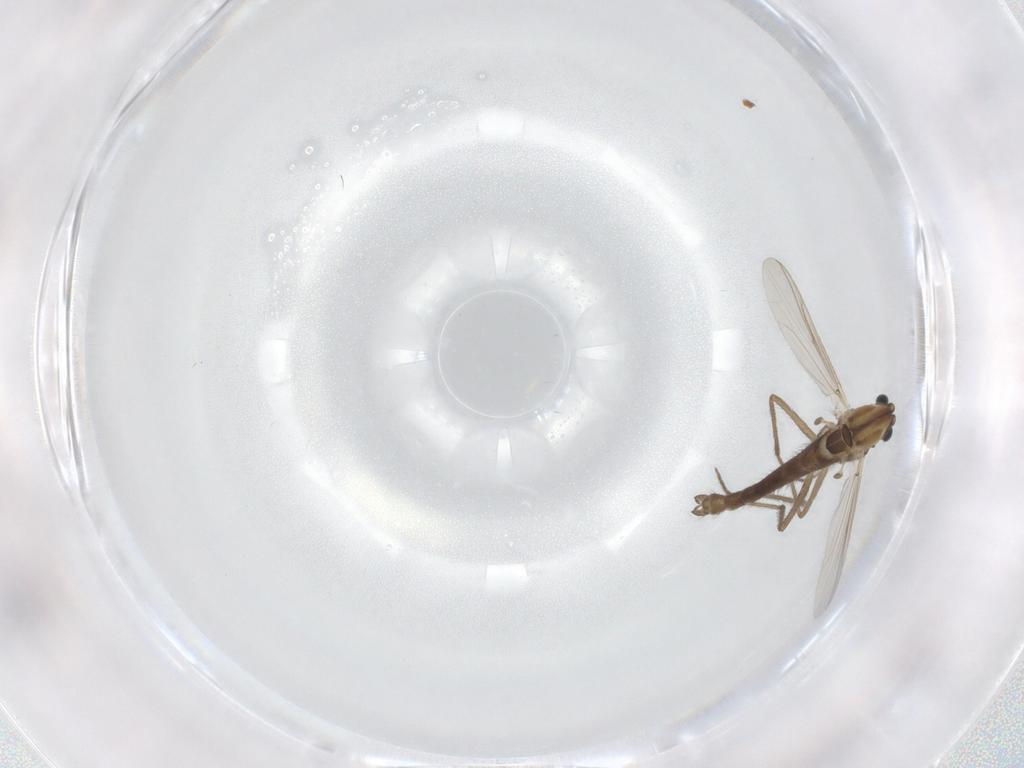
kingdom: Animalia
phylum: Arthropoda
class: Insecta
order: Diptera
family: Chironomidae
